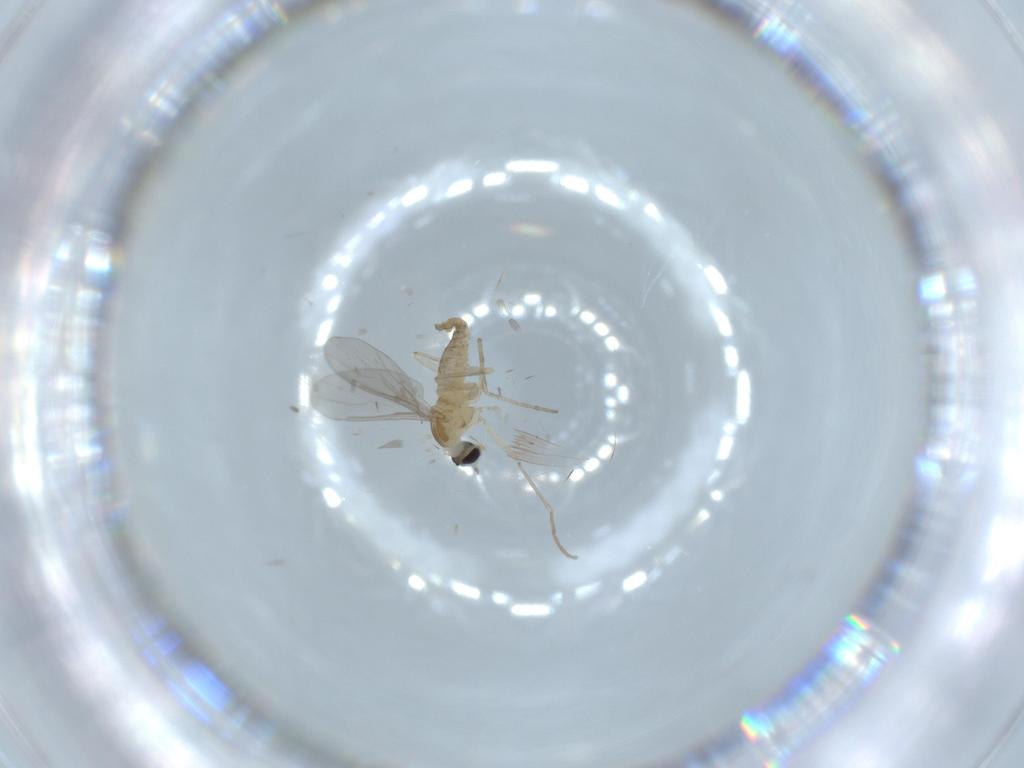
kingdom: Animalia
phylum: Arthropoda
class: Insecta
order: Diptera
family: Cecidomyiidae
